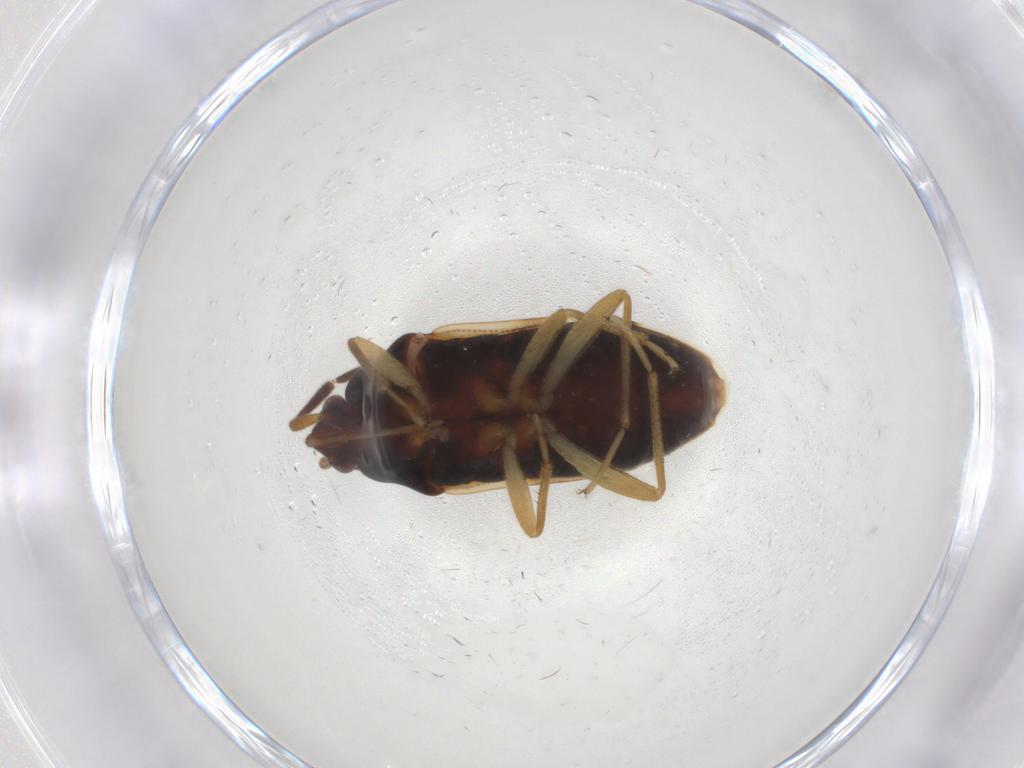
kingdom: Animalia
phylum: Arthropoda
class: Insecta
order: Hemiptera
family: Rhyparochromidae
